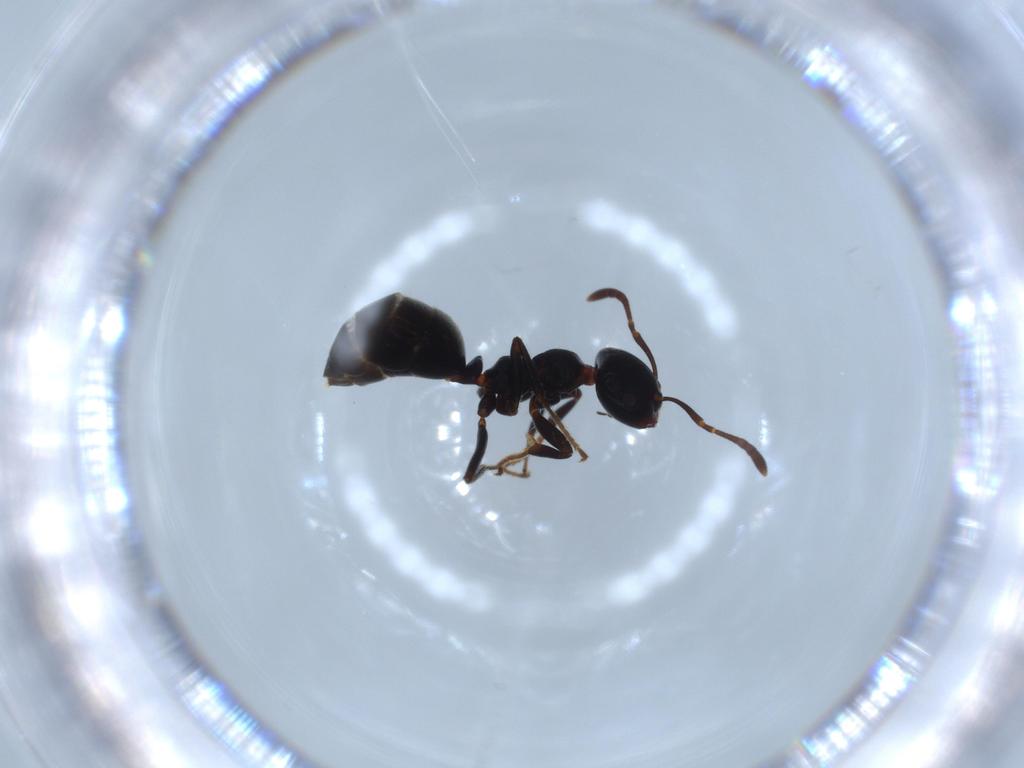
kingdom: Animalia
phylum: Arthropoda
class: Insecta
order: Hymenoptera
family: Formicidae
